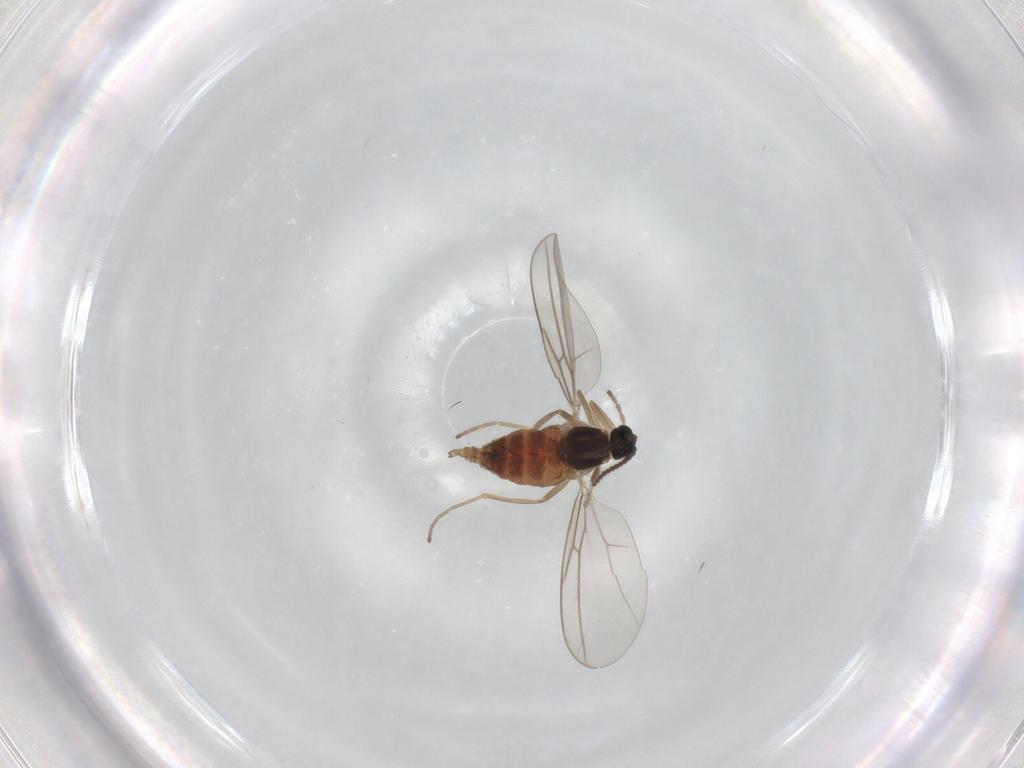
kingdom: Animalia
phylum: Arthropoda
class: Insecta
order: Diptera
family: Cecidomyiidae
